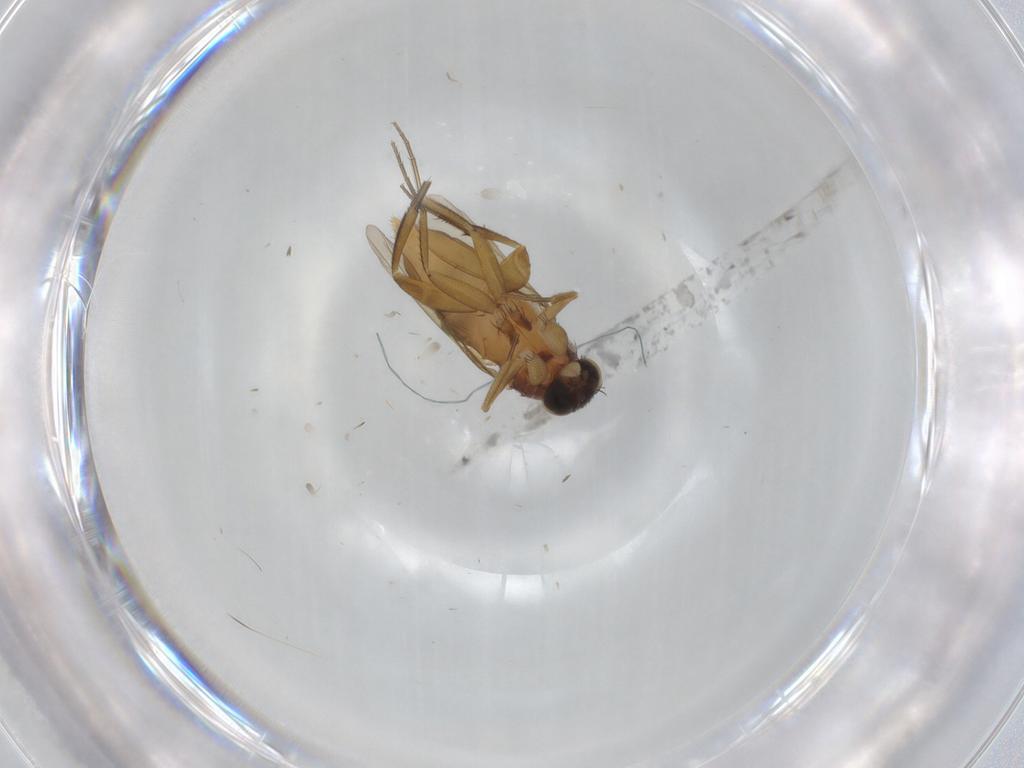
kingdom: Animalia
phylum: Arthropoda
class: Insecta
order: Diptera
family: Phoridae
